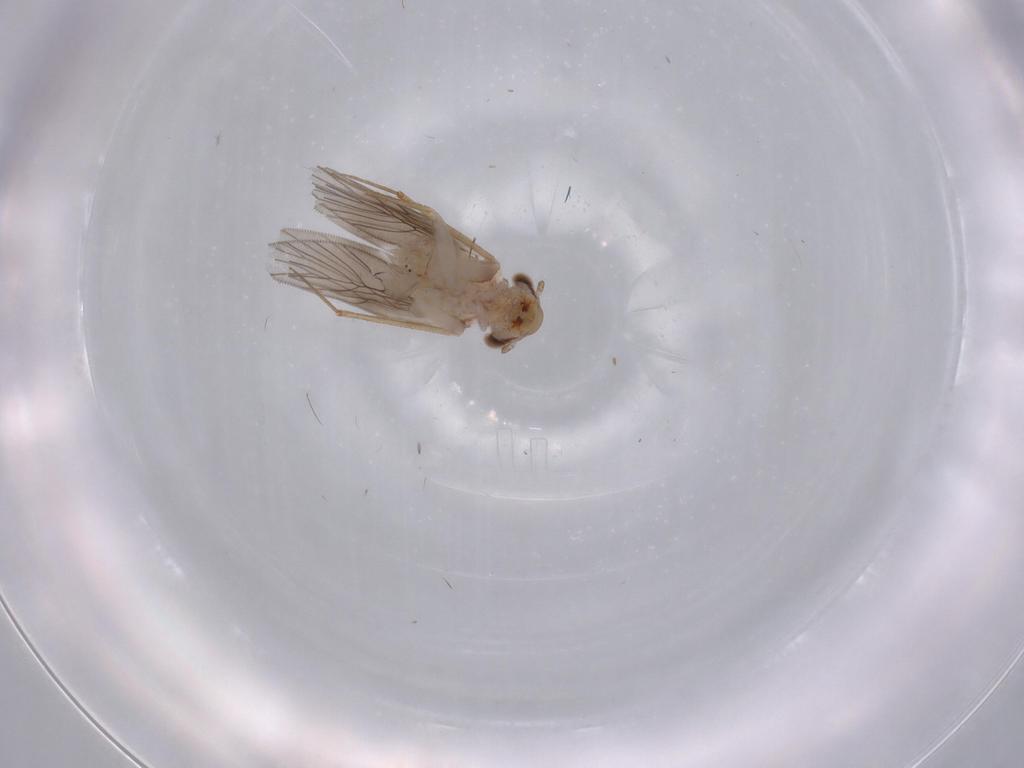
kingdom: Animalia
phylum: Arthropoda
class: Insecta
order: Psocodea
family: Lepidopsocidae
